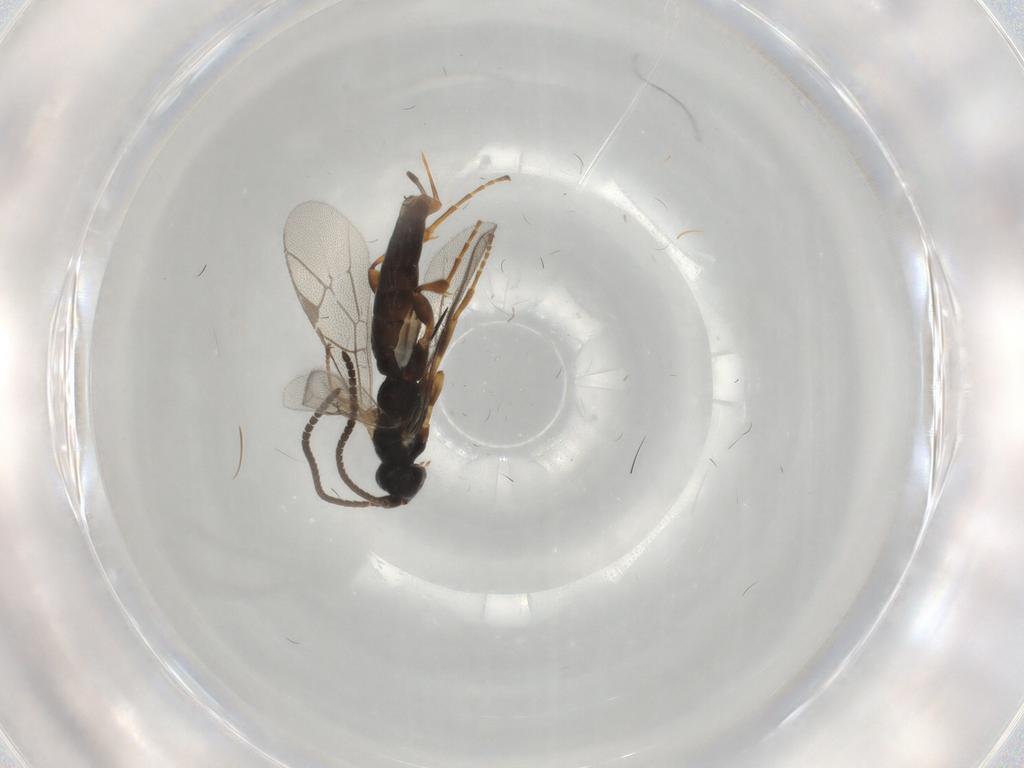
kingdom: Animalia
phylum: Arthropoda
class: Insecta
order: Hymenoptera
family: Ichneumonidae
